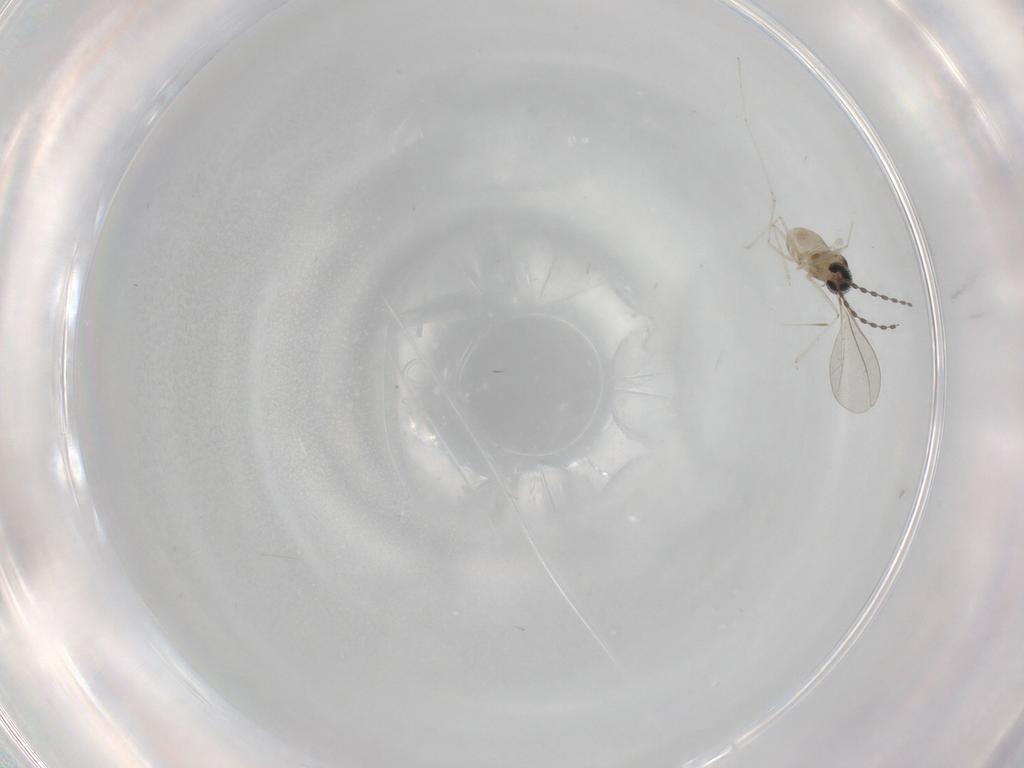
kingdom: Animalia
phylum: Arthropoda
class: Insecta
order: Diptera
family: Cecidomyiidae
